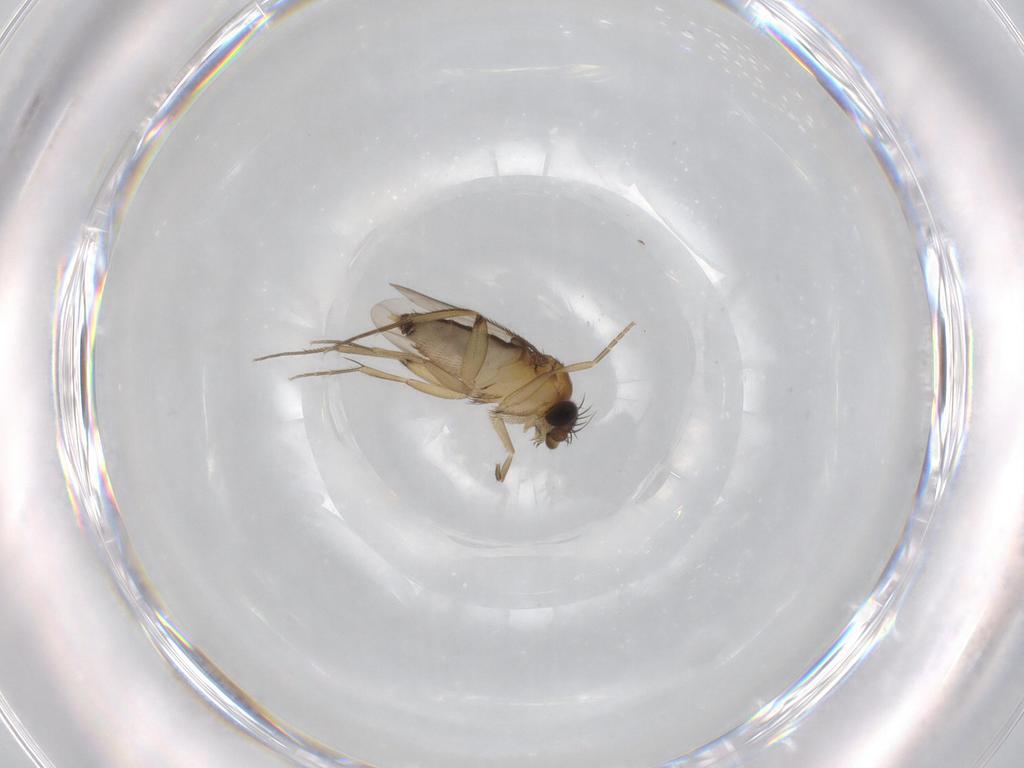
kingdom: Animalia
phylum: Arthropoda
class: Insecta
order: Diptera
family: Phoridae
